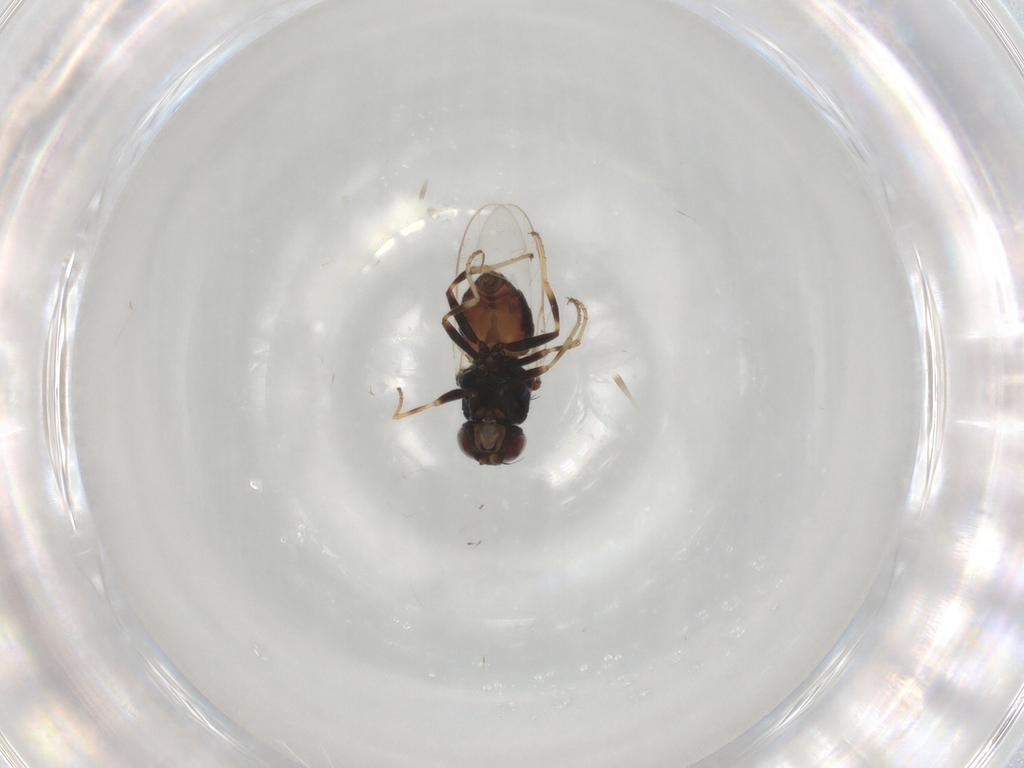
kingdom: Animalia
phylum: Arthropoda
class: Insecta
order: Diptera
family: Chloropidae
